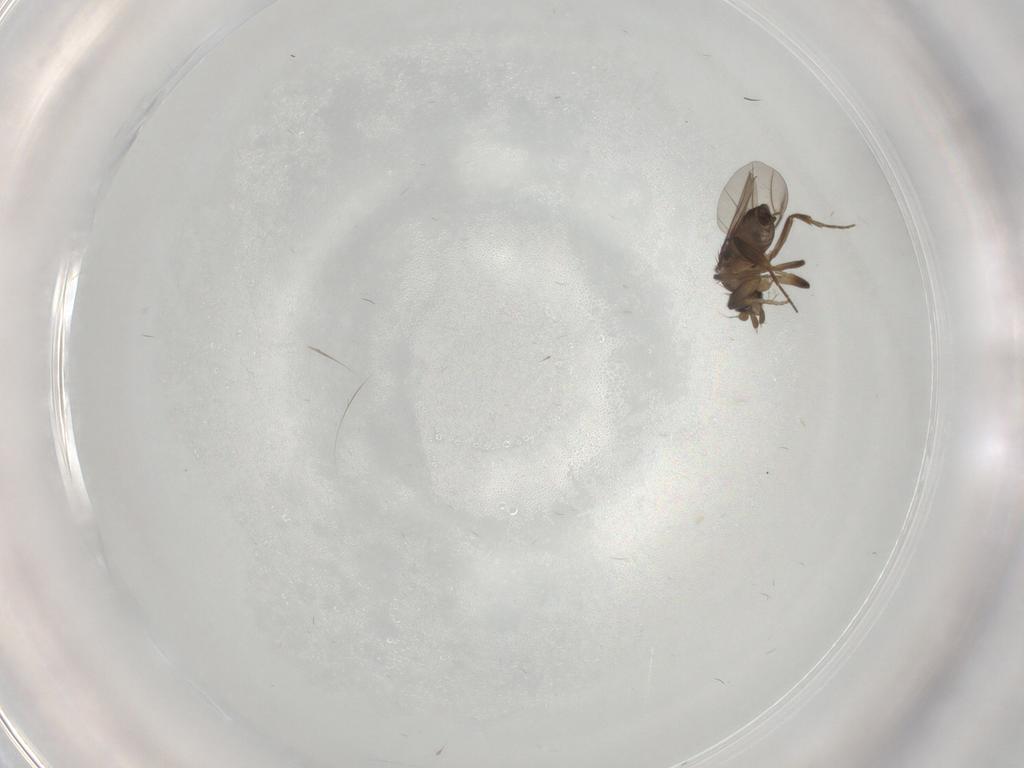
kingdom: Animalia
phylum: Arthropoda
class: Insecta
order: Diptera
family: Phoridae
